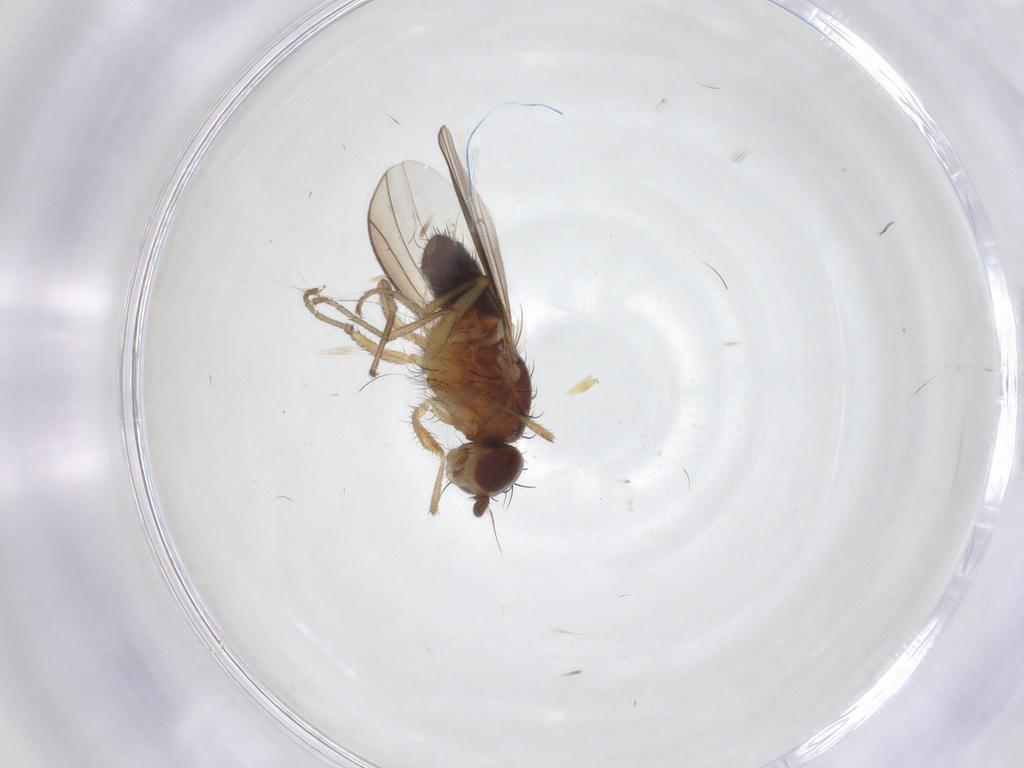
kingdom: Animalia
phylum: Arthropoda
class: Insecta
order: Diptera
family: Heleomyzidae
